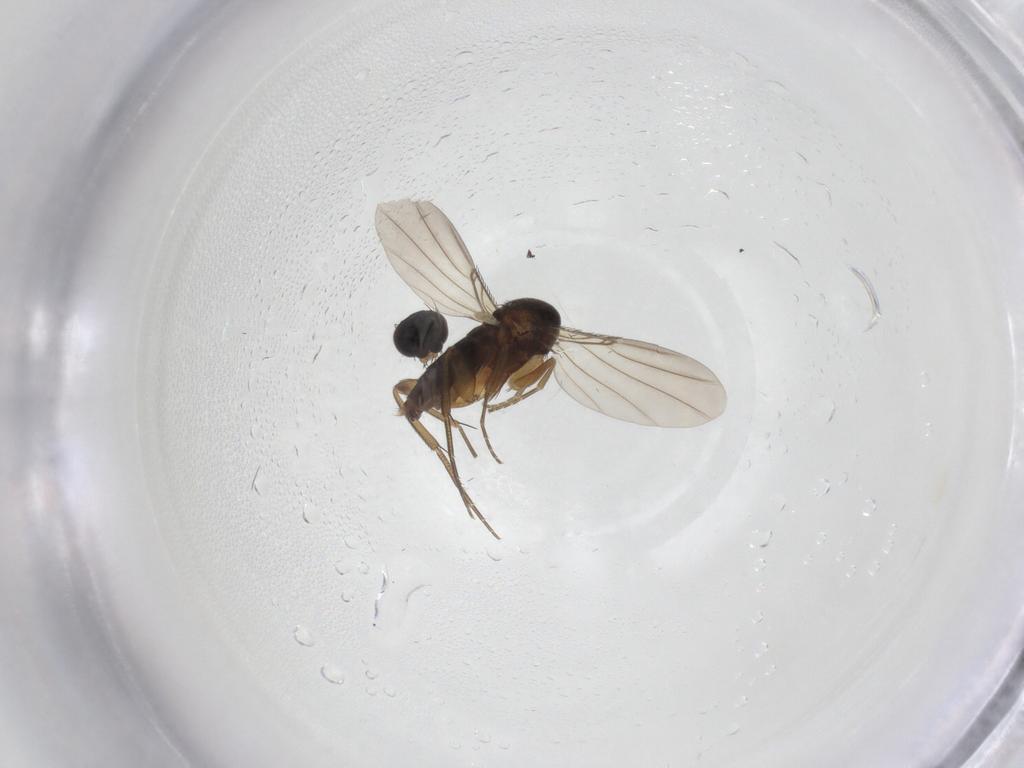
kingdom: Animalia
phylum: Arthropoda
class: Insecta
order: Diptera
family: Phoridae
